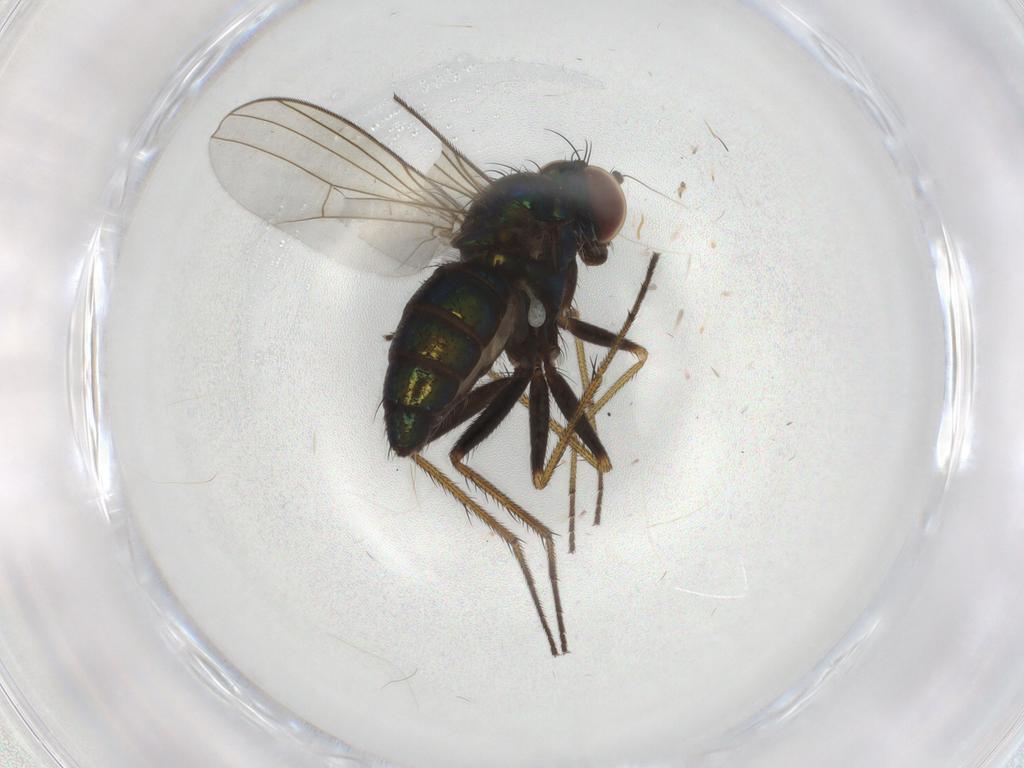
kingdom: Animalia
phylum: Arthropoda
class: Insecta
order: Diptera
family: Dolichopodidae
